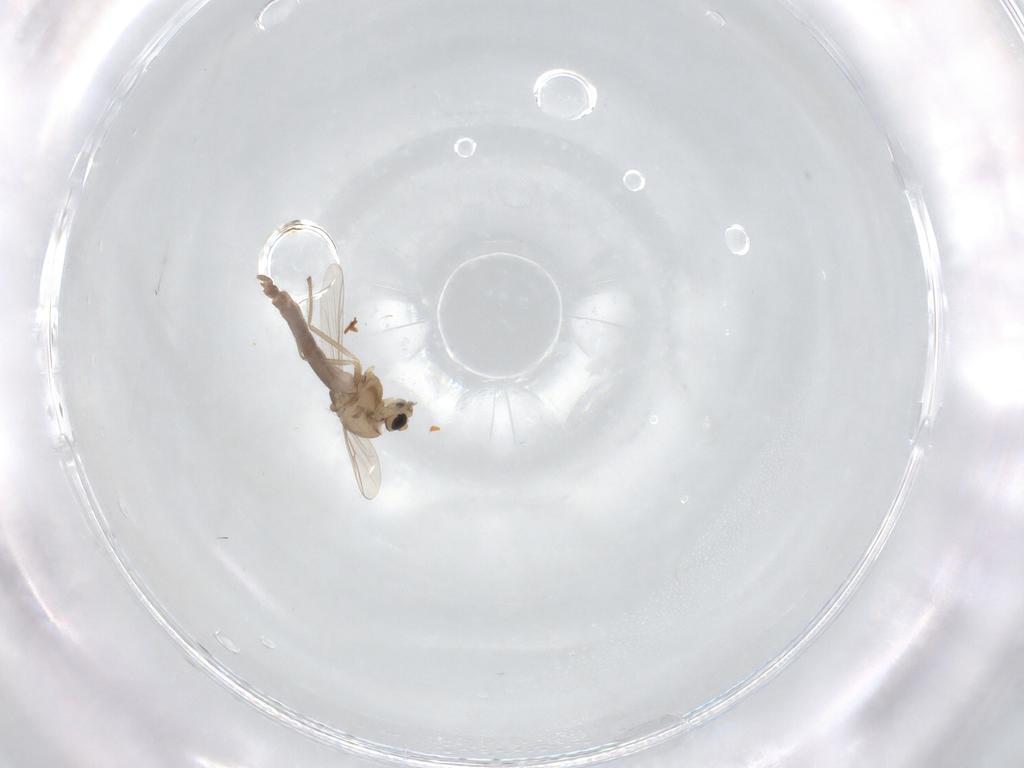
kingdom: Animalia
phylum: Arthropoda
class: Insecta
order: Diptera
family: Chironomidae
